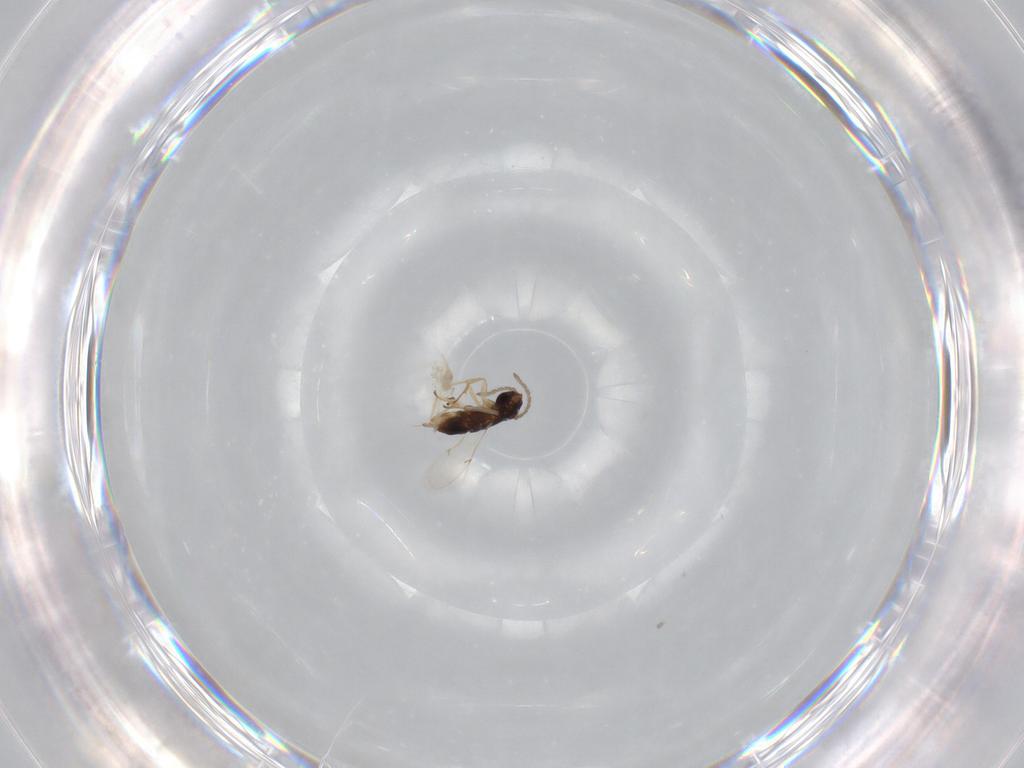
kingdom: Animalia
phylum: Arthropoda
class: Insecta
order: Hymenoptera
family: Encyrtidae
